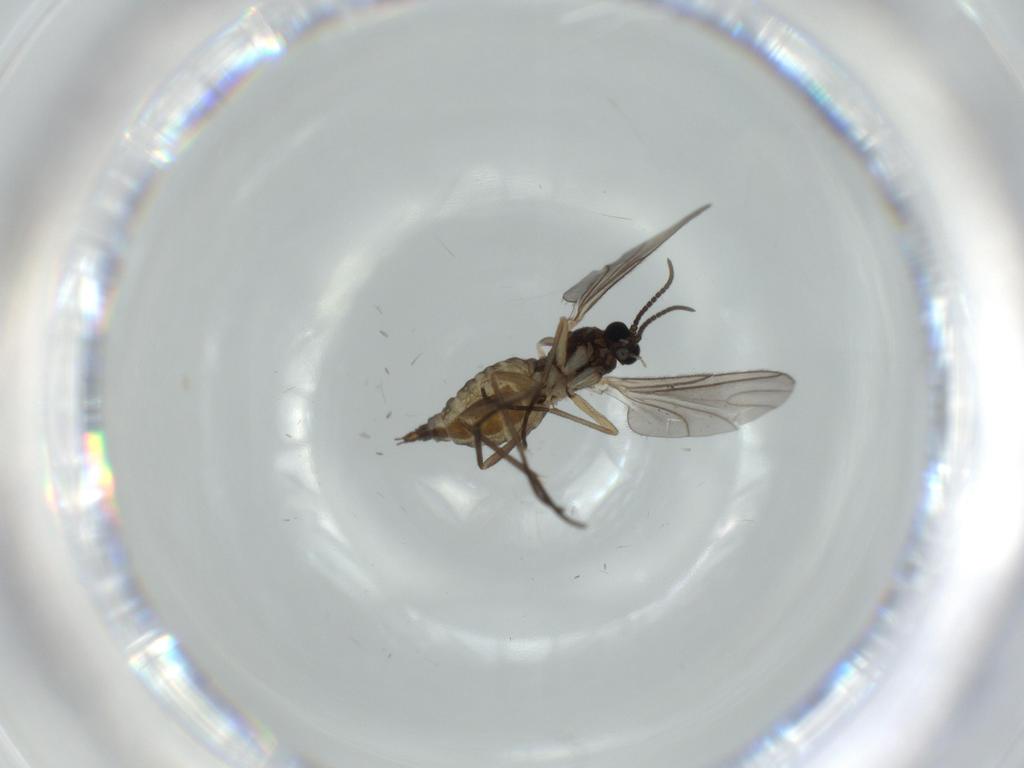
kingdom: Animalia
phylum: Arthropoda
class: Insecta
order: Diptera
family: Sciaridae
